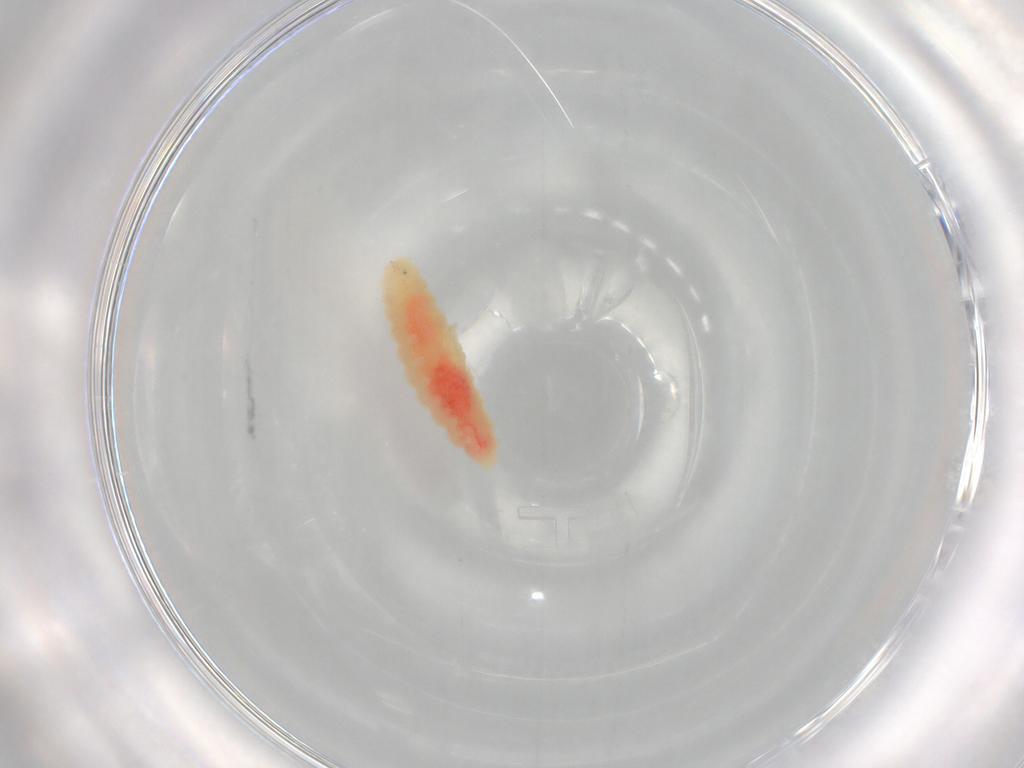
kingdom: Animalia
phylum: Arthropoda
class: Insecta
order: Diptera
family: Cecidomyiidae
